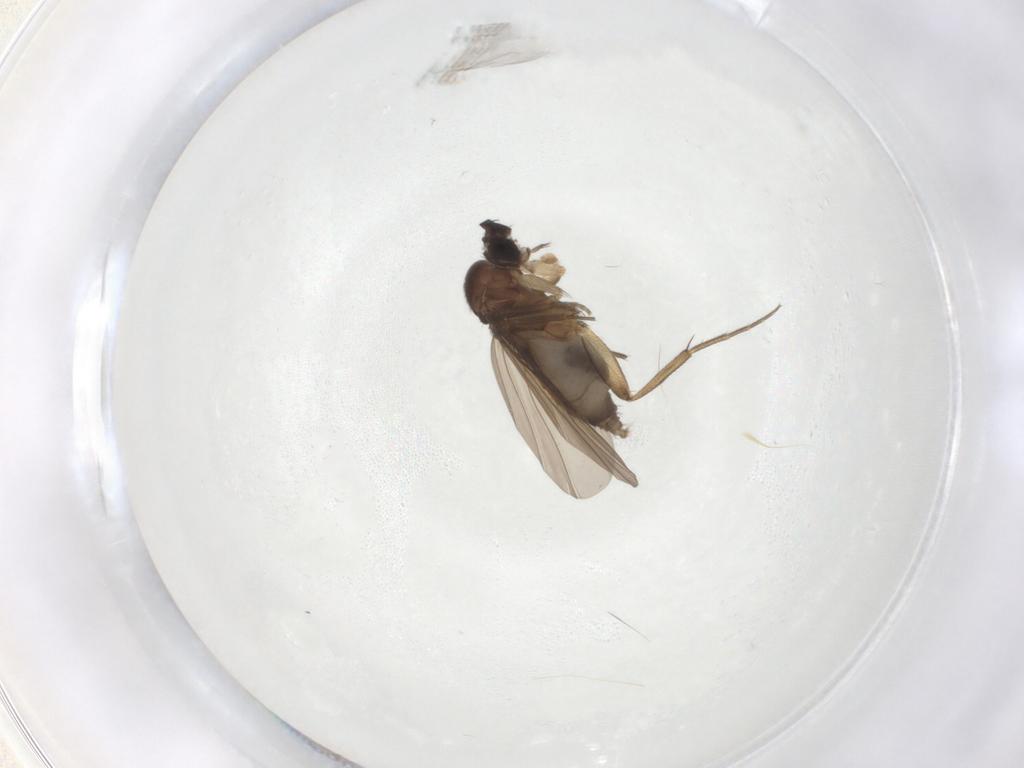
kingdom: Animalia
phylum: Arthropoda
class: Insecta
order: Diptera
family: Phoridae
